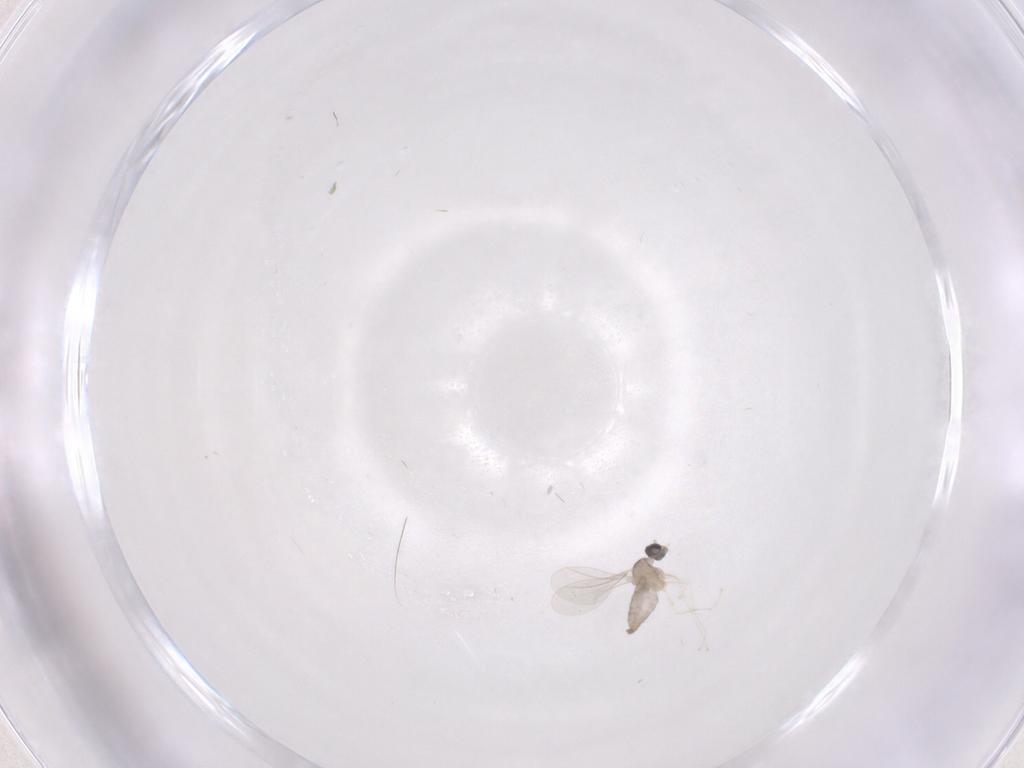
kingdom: Animalia
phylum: Arthropoda
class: Insecta
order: Diptera
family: Cecidomyiidae
